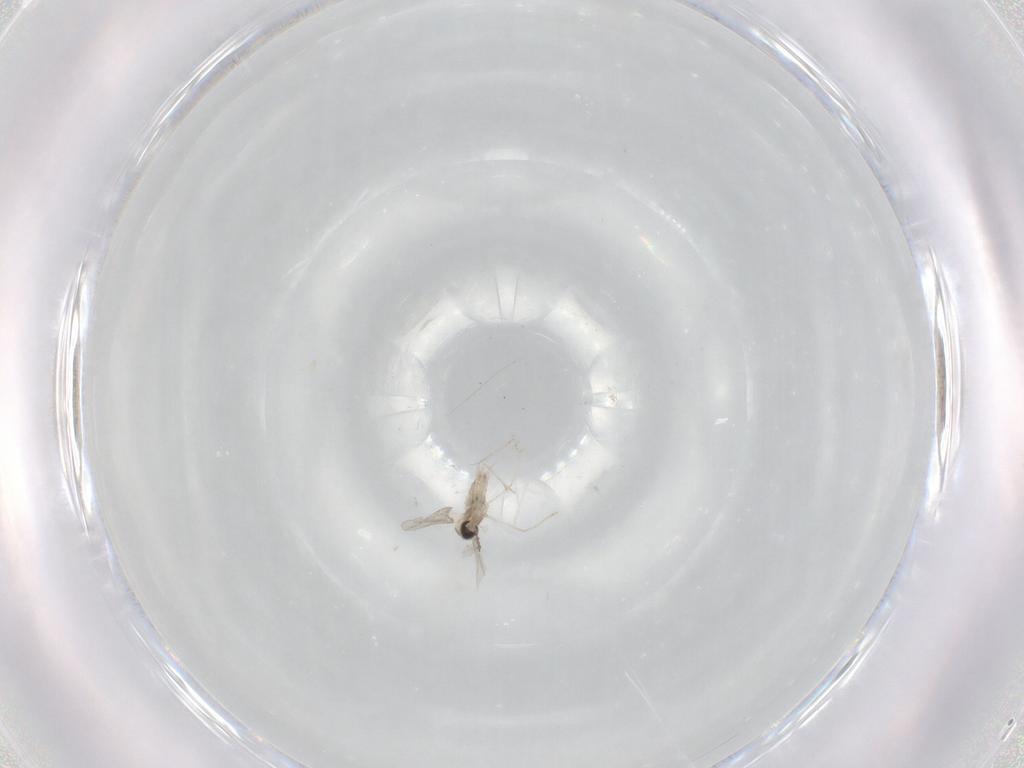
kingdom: Animalia
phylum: Arthropoda
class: Insecta
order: Diptera
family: Cecidomyiidae
